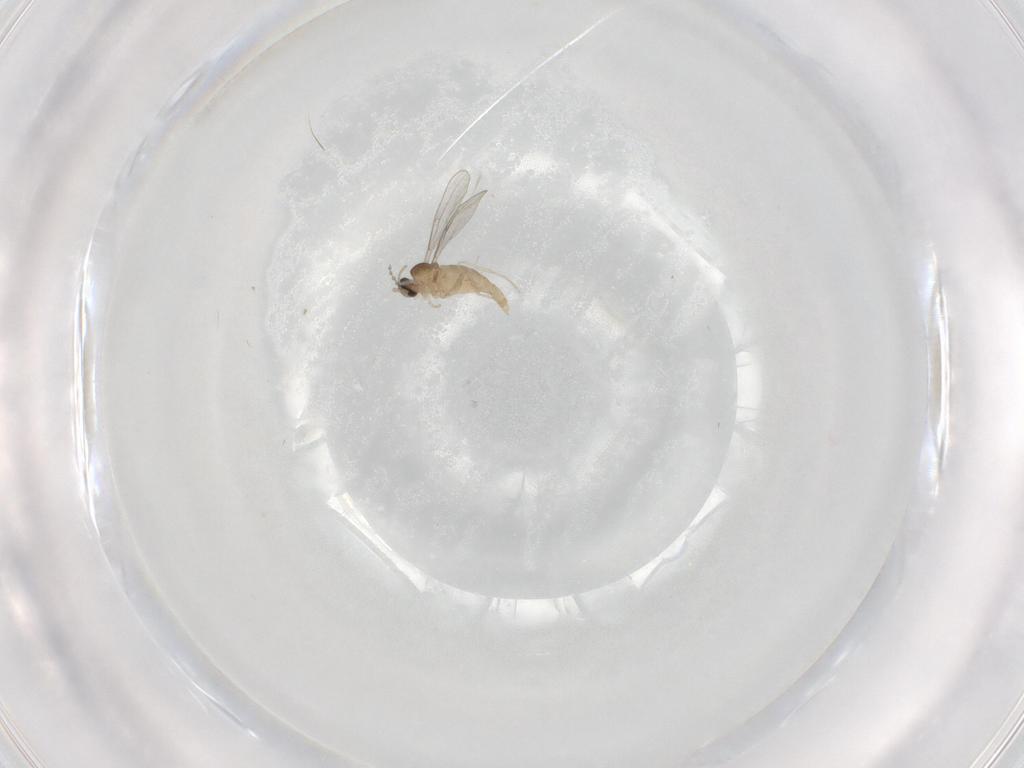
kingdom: Animalia
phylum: Arthropoda
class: Insecta
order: Diptera
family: Cecidomyiidae
